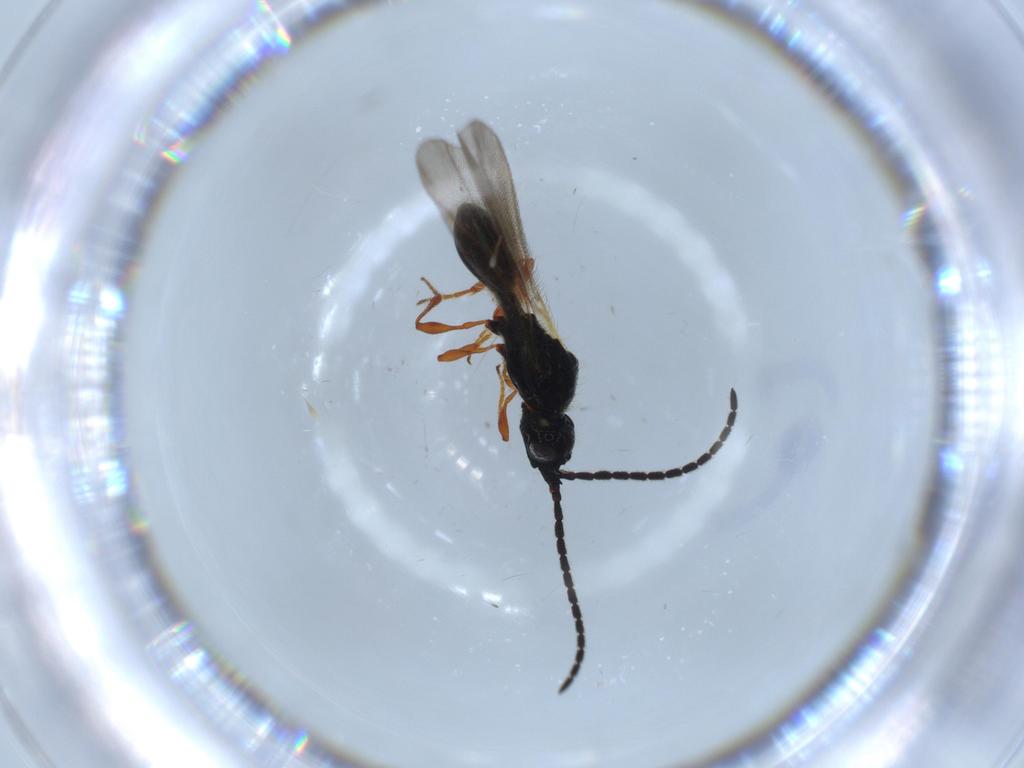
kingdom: Animalia
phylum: Arthropoda
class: Insecta
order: Hymenoptera
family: Diapriidae
